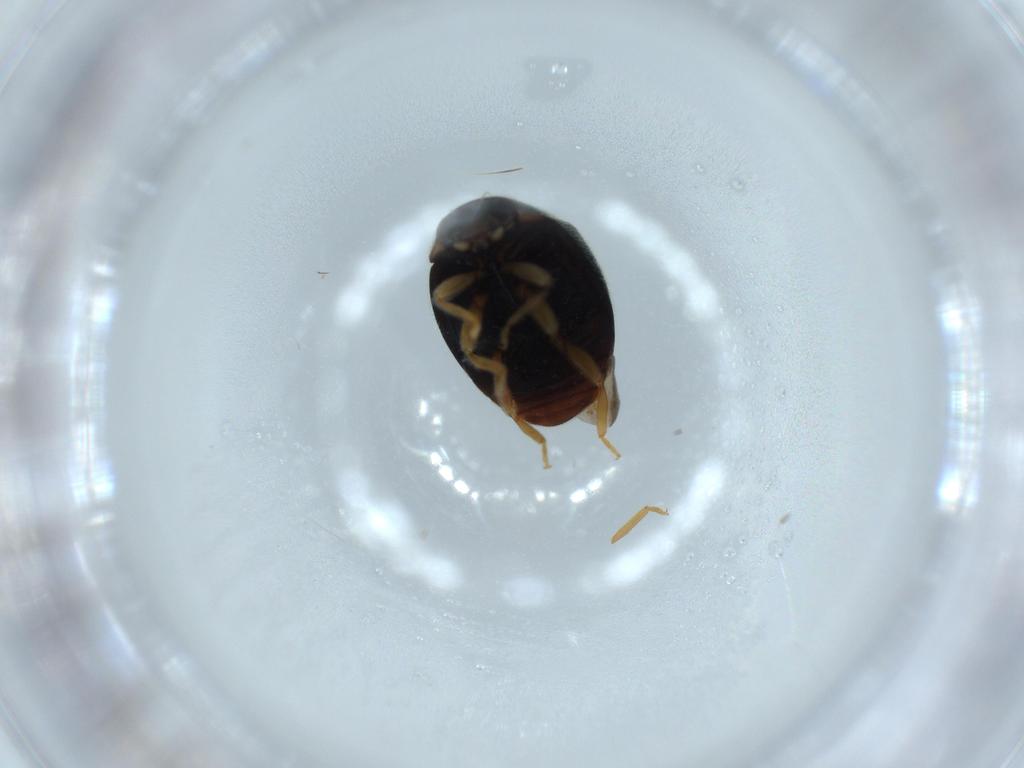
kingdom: Animalia
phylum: Arthropoda
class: Insecta
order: Coleoptera
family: Coccinellidae
